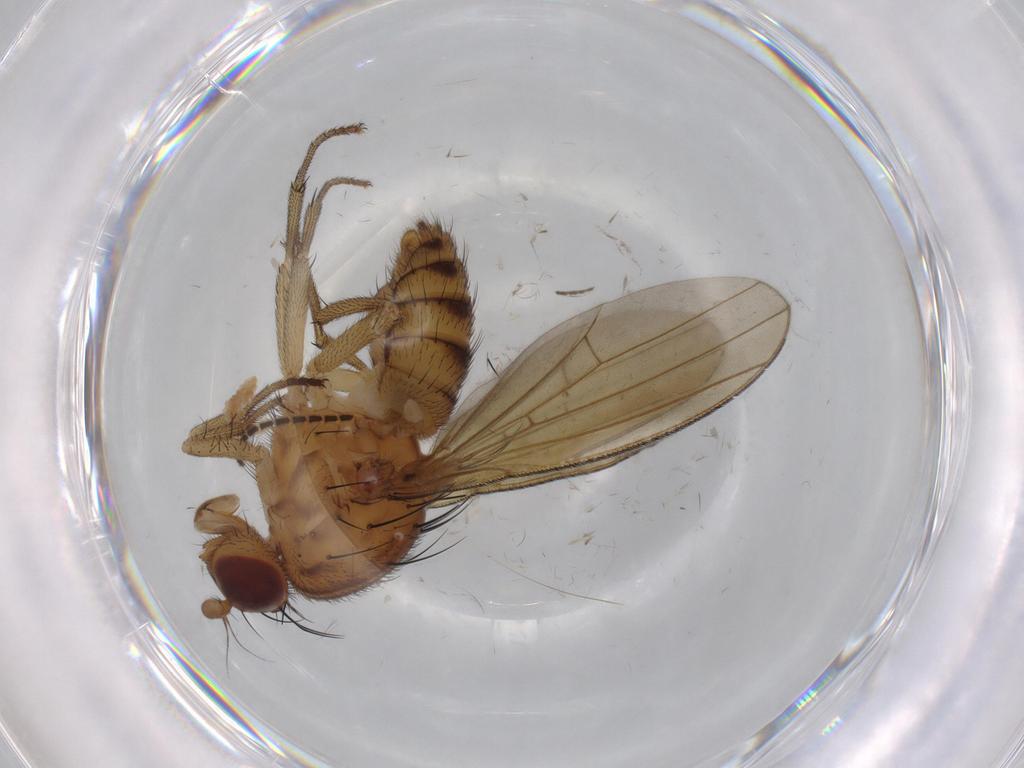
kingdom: Animalia
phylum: Arthropoda
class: Insecta
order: Diptera
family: Sciaridae
